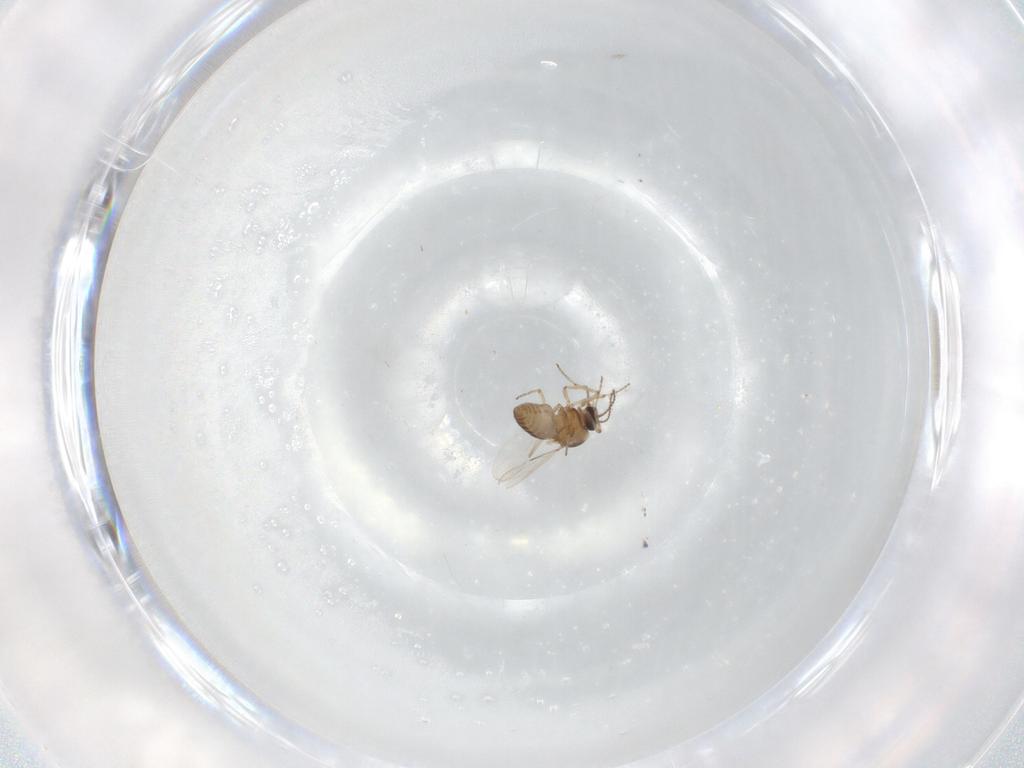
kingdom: Animalia
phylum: Arthropoda
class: Insecta
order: Diptera
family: Ceratopogonidae
